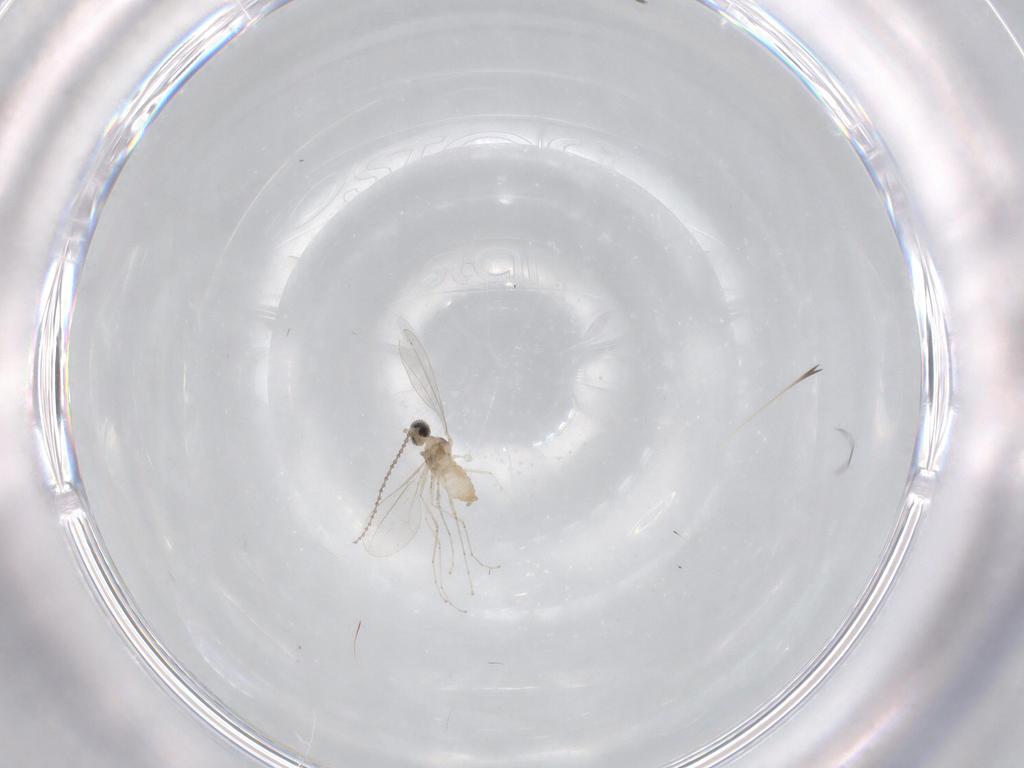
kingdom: Animalia
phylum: Arthropoda
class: Insecta
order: Diptera
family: Cecidomyiidae
